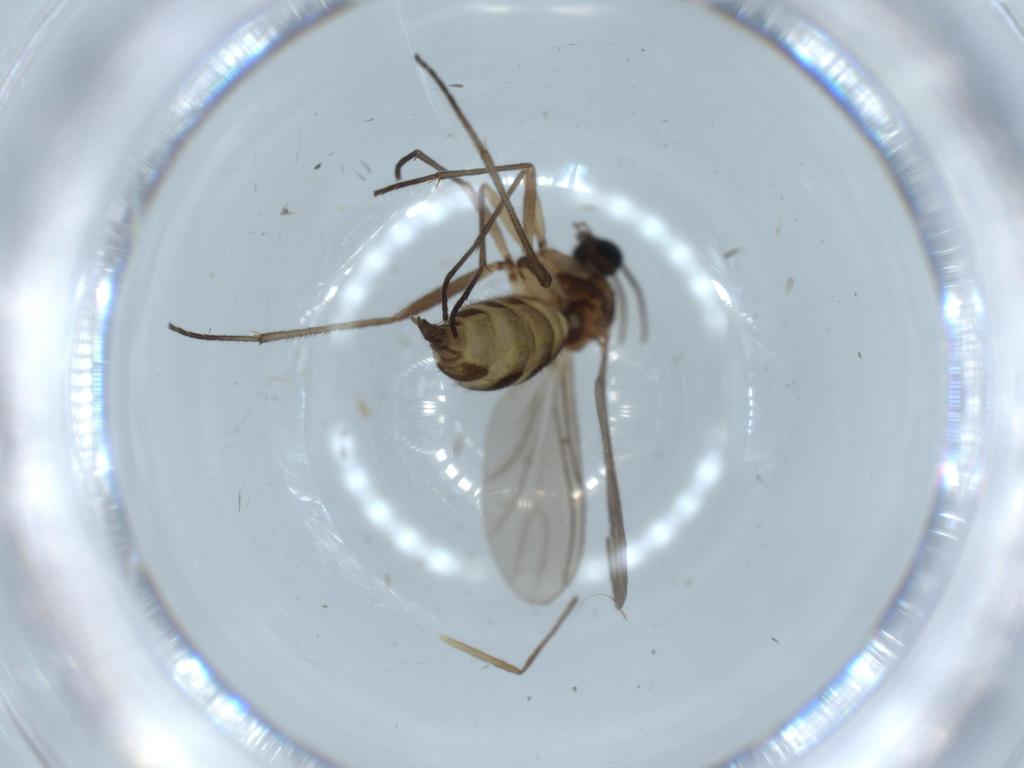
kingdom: Animalia
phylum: Arthropoda
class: Insecta
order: Diptera
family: Sciaridae
